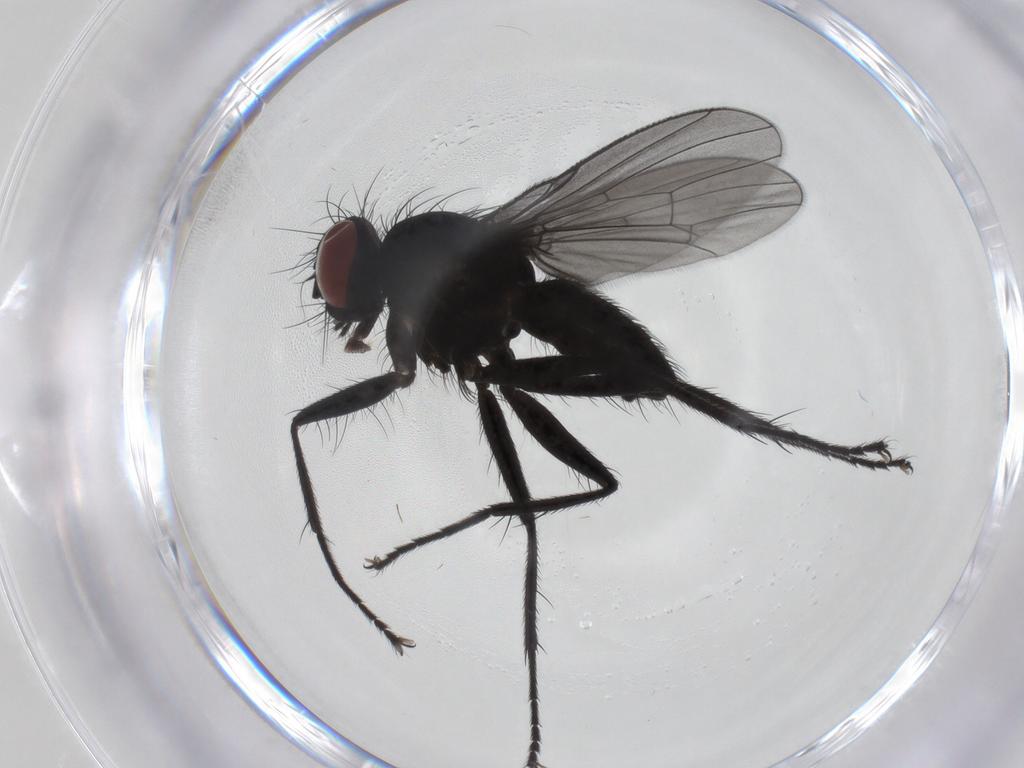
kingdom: Animalia
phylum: Arthropoda
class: Insecta
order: Diptera
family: Muscidae
